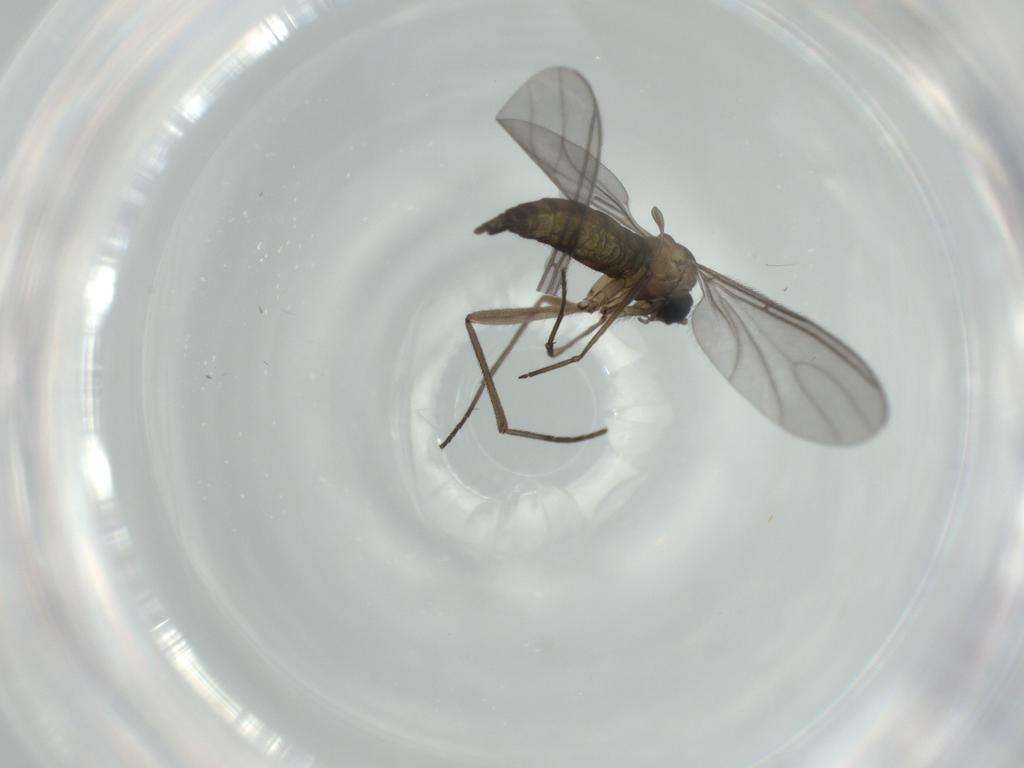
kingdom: Animalia
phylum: Arthropoda
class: Insecta
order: Diptera
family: Sciaridae
